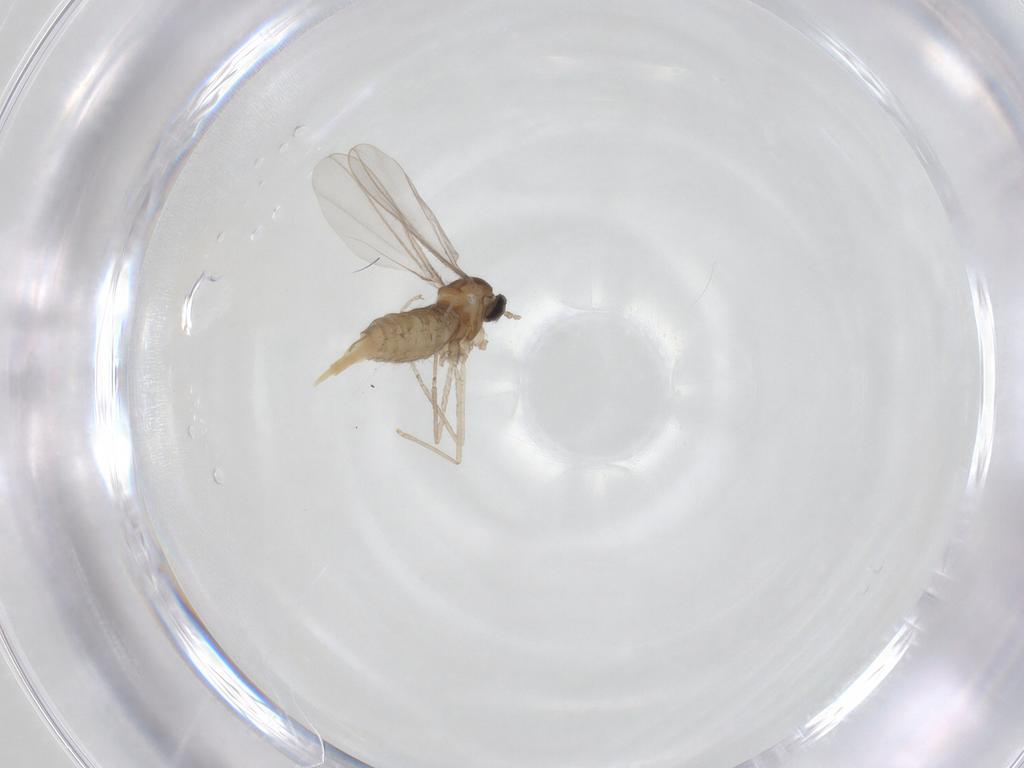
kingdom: Animalia
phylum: Arthropoda
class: Insecta
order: Diptera
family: Cecidomyiidae
